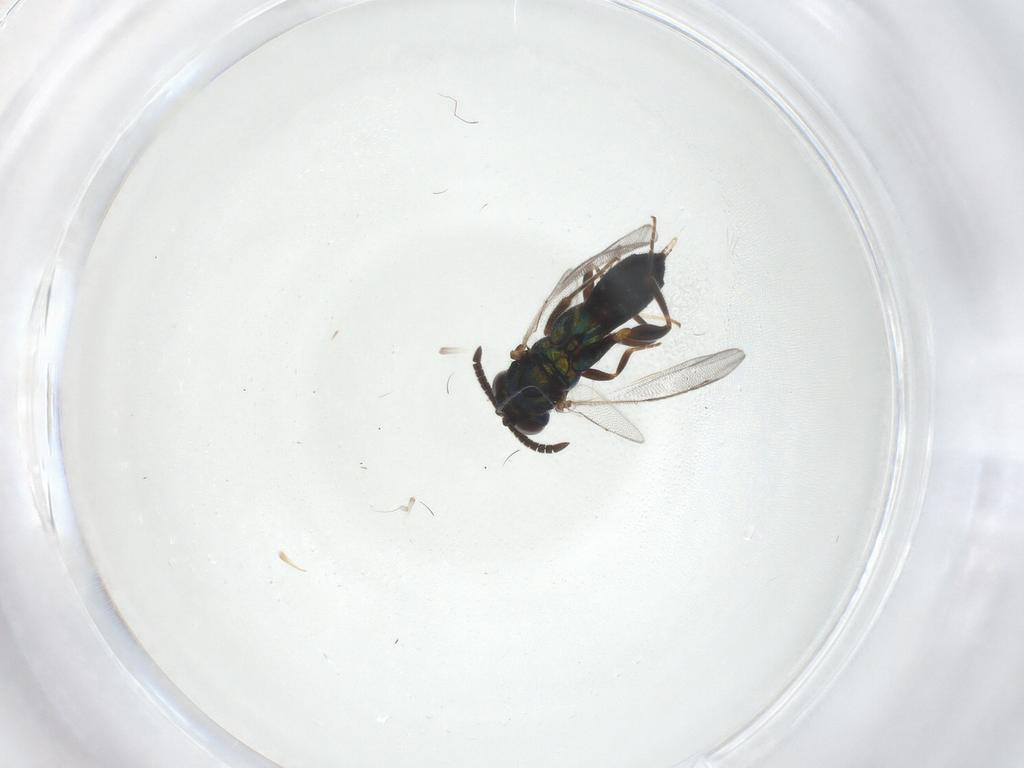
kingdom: Animalia
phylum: Arthropoda
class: Insecta
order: Hymenoptera
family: Cleonyminae
